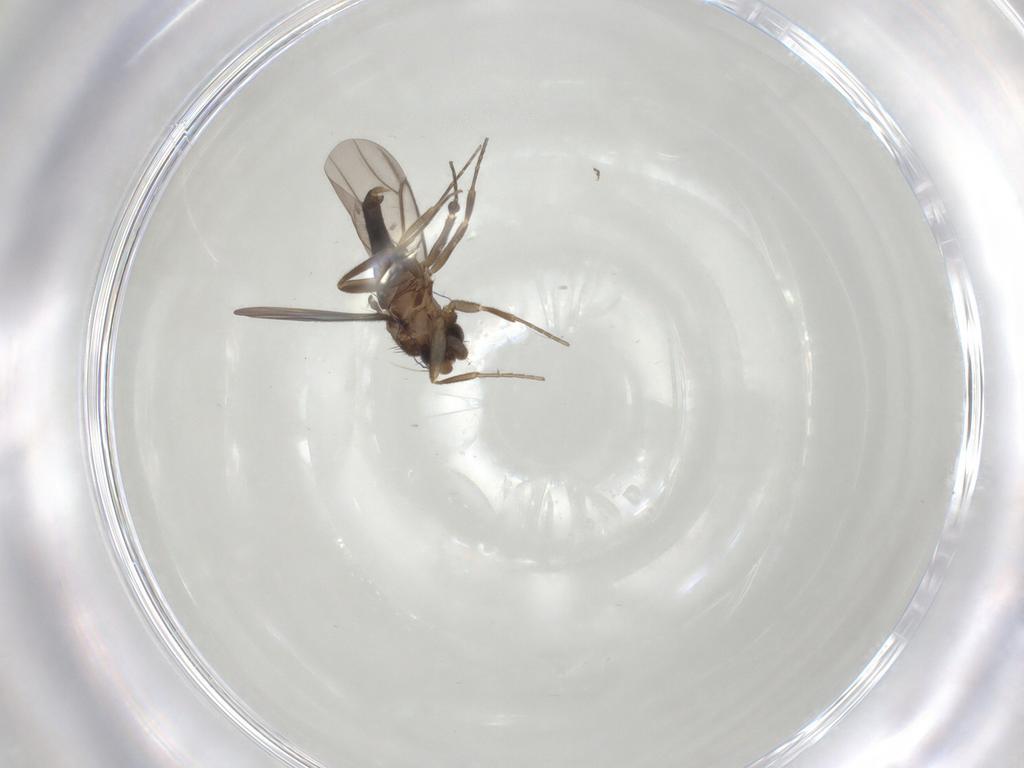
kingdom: Animalia
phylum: Arthropoda
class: Insecta
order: Diptera
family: Phoridae
